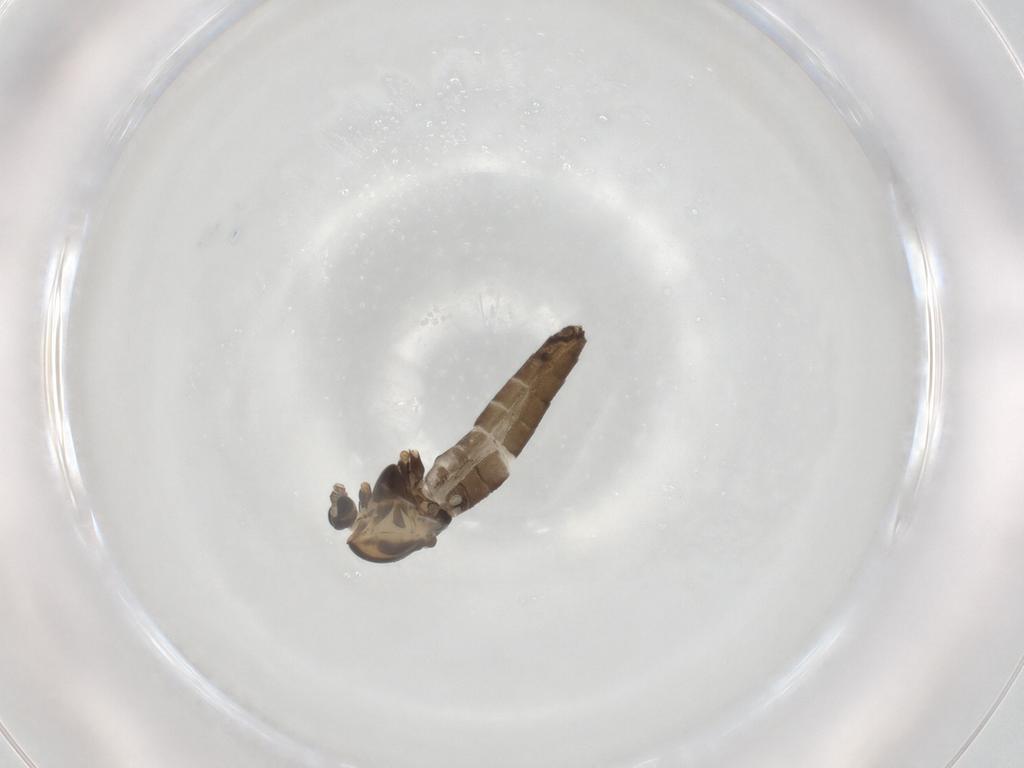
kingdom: Animalia
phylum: Arthropoda
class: Insecta
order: Diptera
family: Chironomidae
